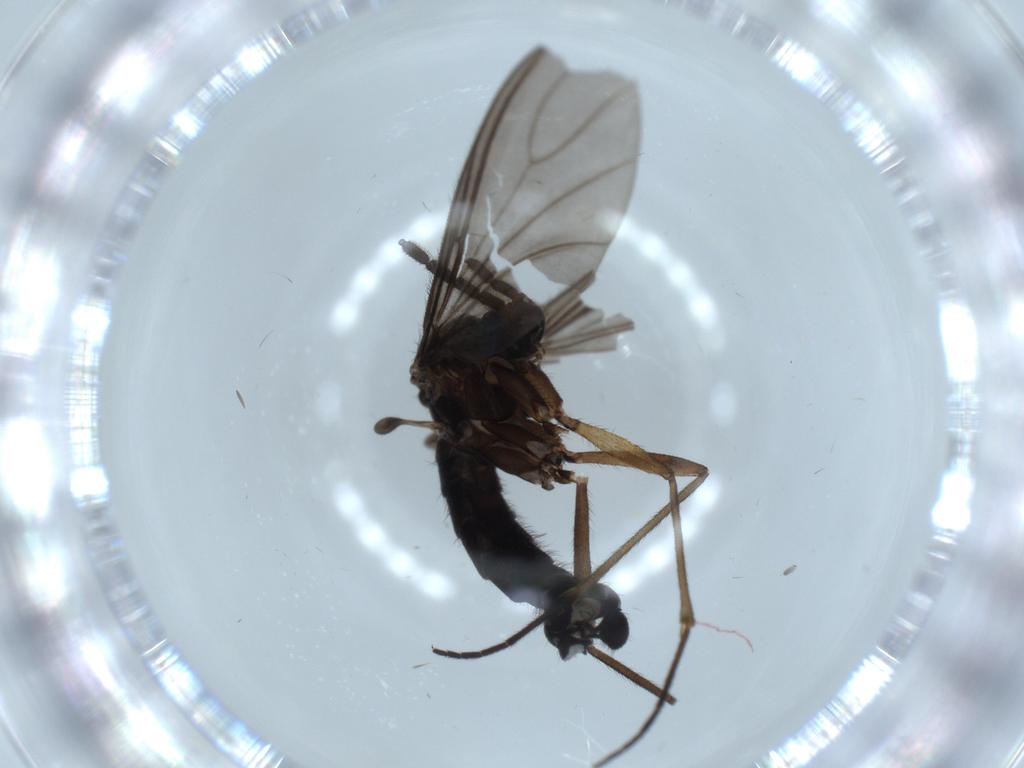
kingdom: Animalia
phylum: Arthropoda
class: Insecta
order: Diptera
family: Sciaridae
